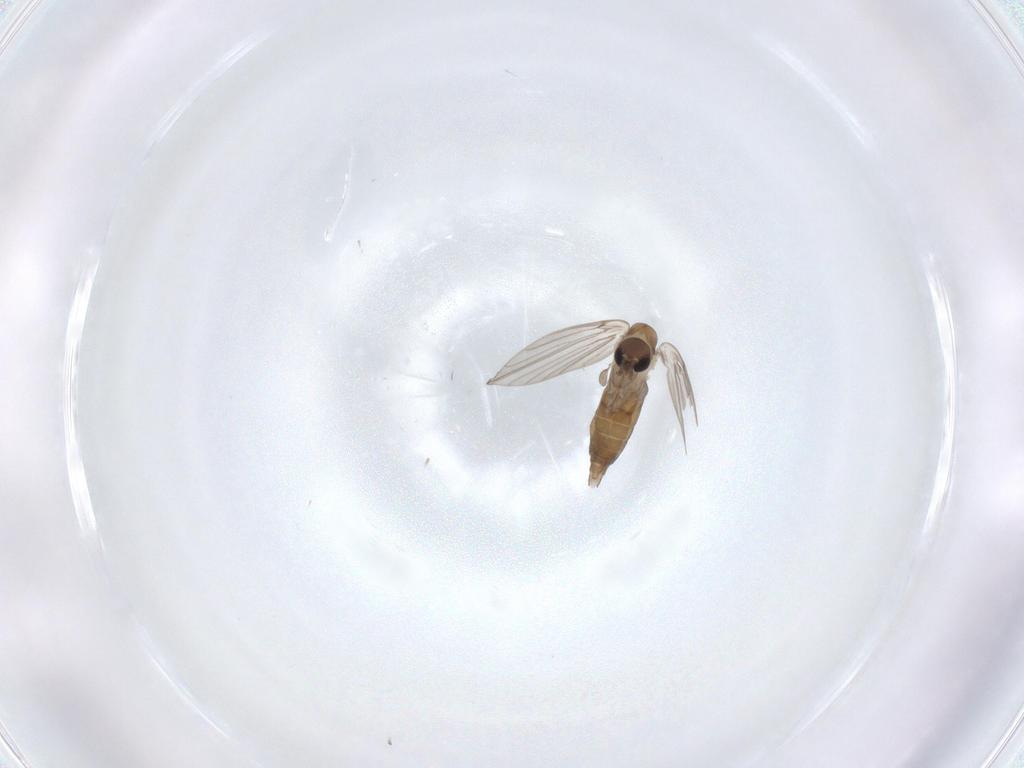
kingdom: Animalia
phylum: Arthropoda
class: Insecta
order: Diptera
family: Psychodidae
